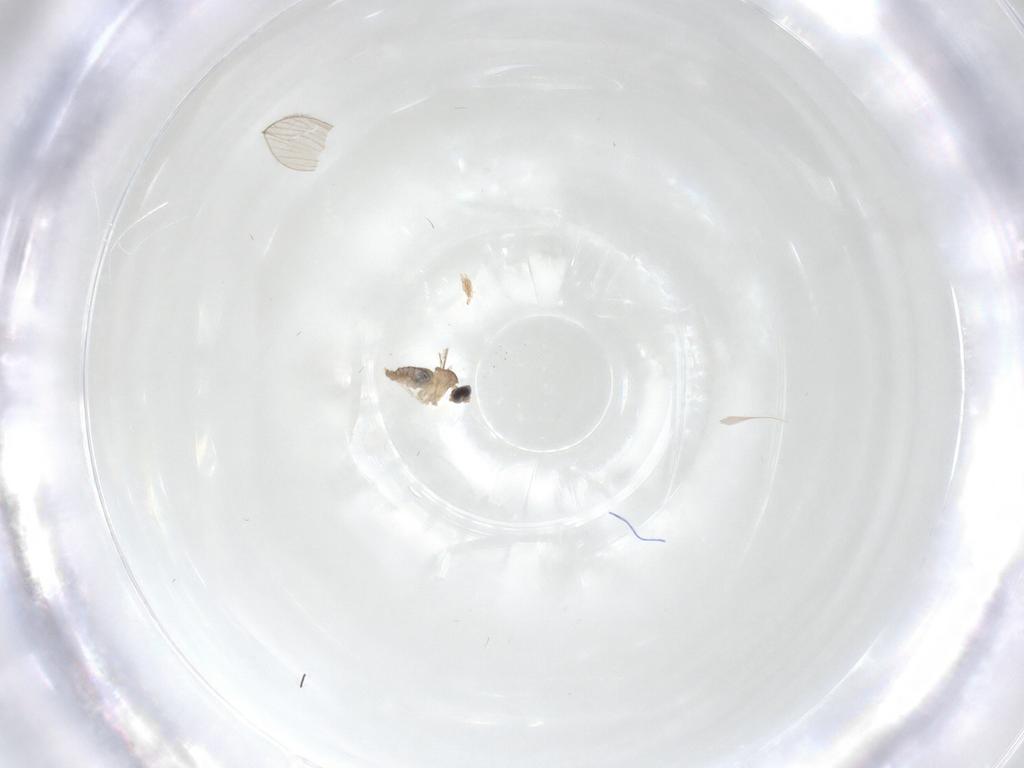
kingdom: Animalia
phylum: Arthropoda
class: Insecta
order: Diptera
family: Cecidomyiidae
